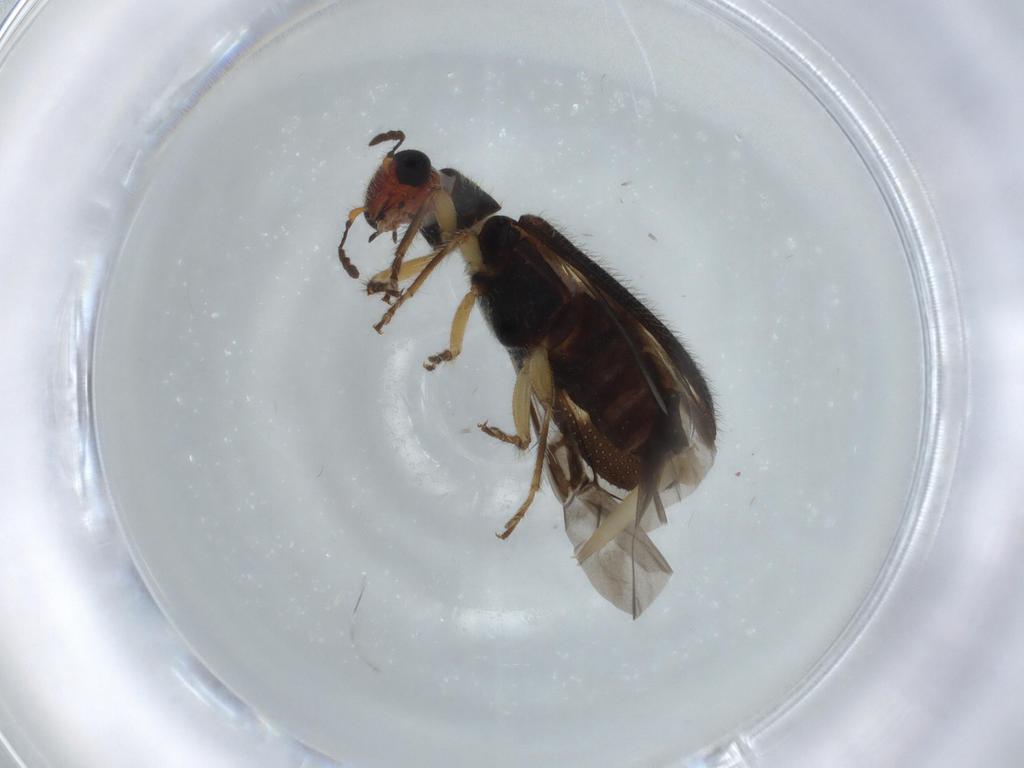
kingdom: Animalia
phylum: Arthropoda
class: Insecta
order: Coleoptera
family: Cleridae
